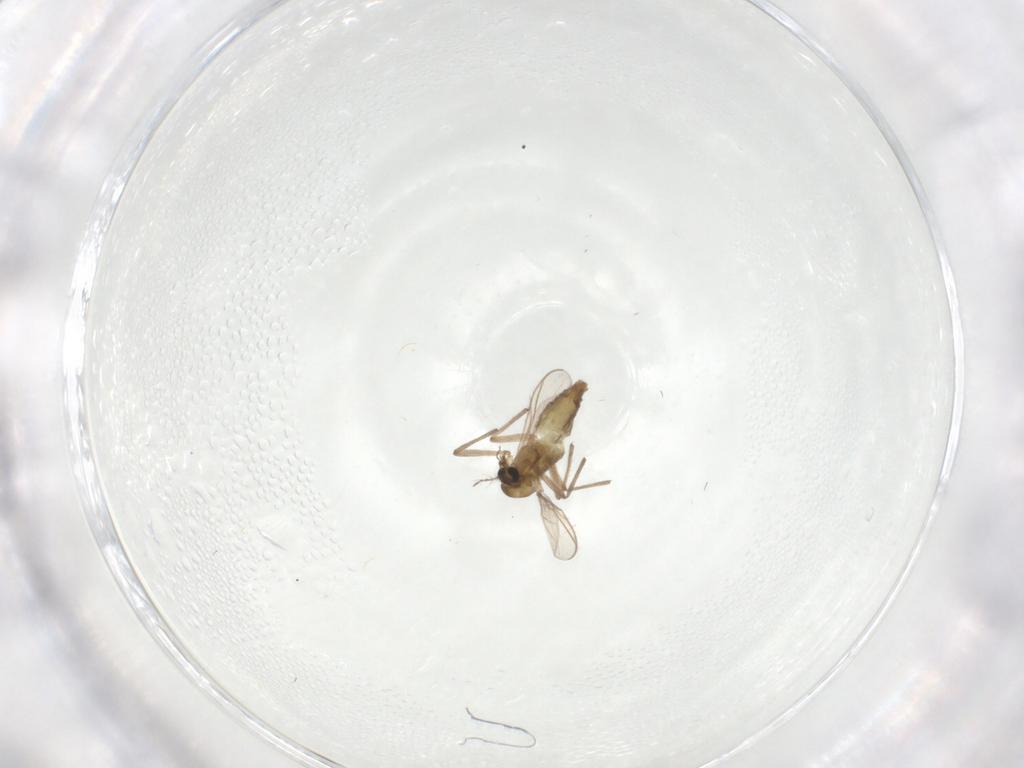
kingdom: Animalia
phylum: Arthropoda
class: Insecta
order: Diptera
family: Chironomidae
